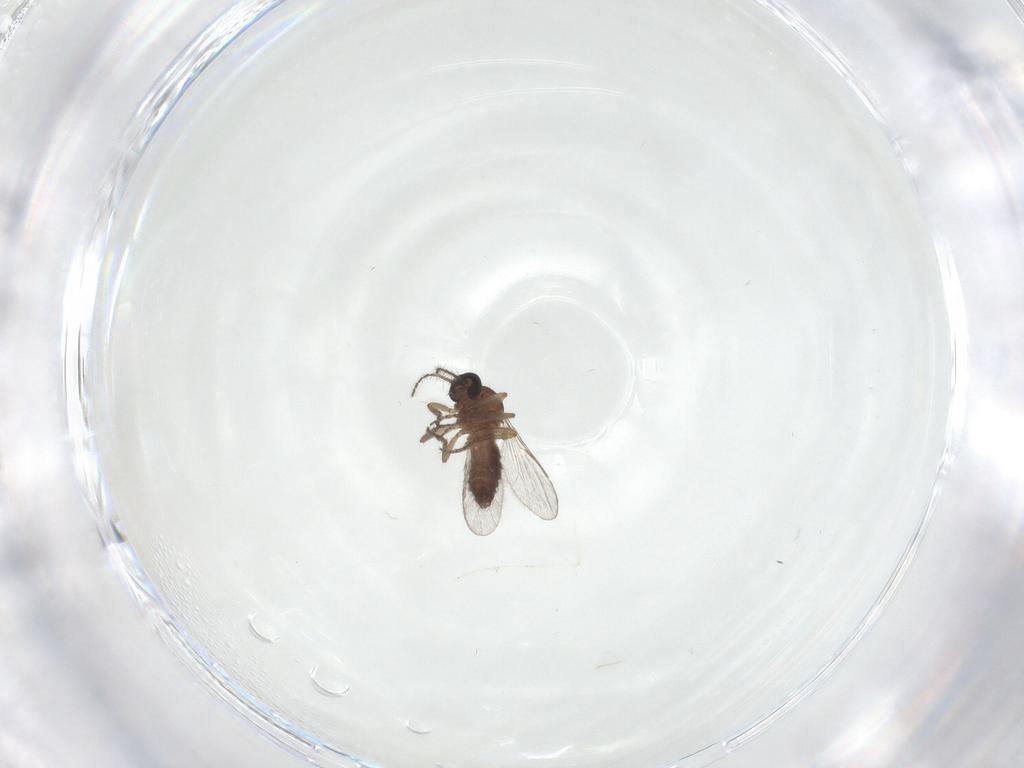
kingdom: Animalia
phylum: Arthropoda
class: Insecta
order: Diptera
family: Ceratopogonidae
